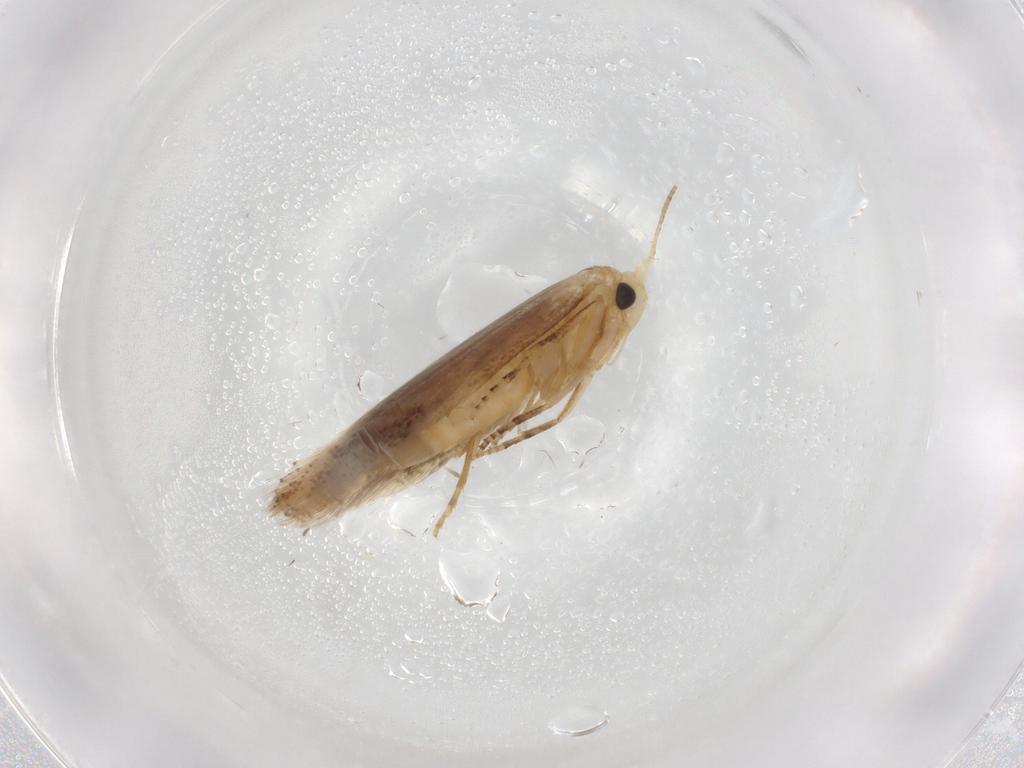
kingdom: Animalia
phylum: Arthropoda
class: Insecta
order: Lepidoptera
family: Bucculatricidae
